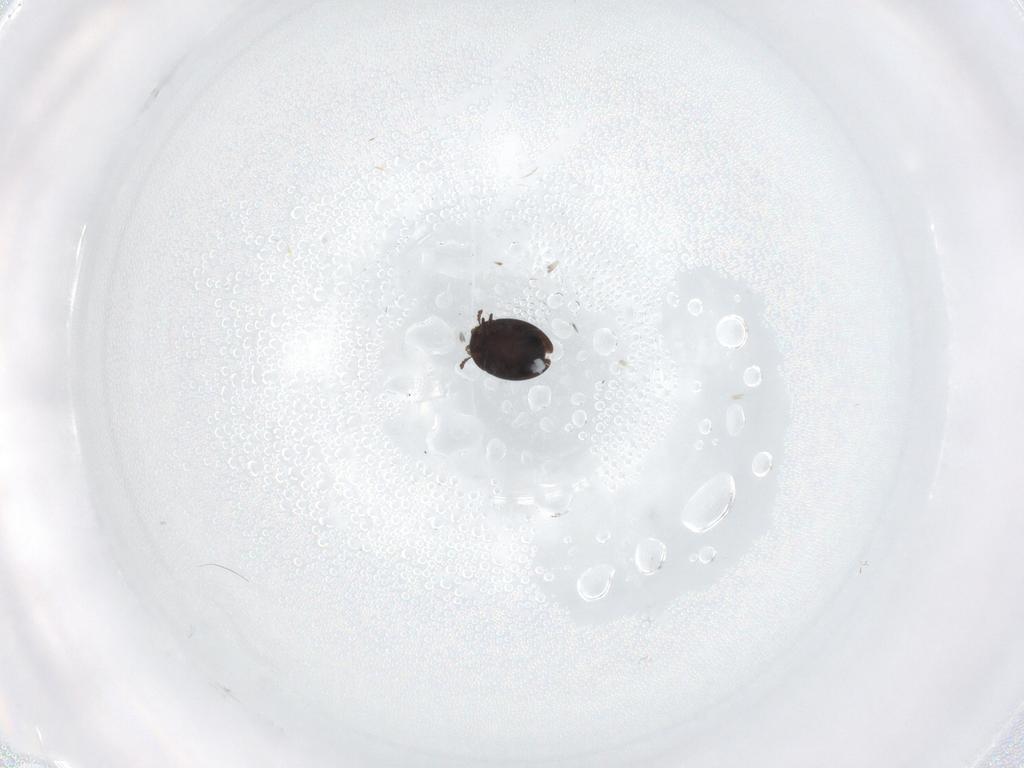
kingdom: Animalia
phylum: Arthropoda
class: Insecta
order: Coleoptera
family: Corylophidae
